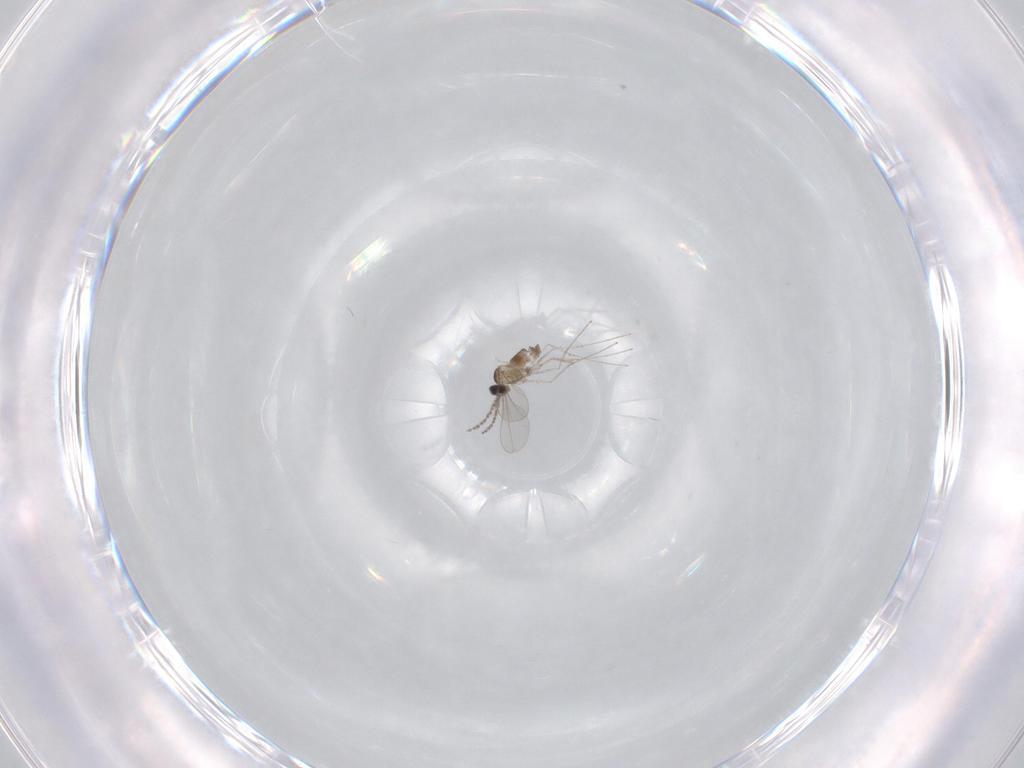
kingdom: Animalia
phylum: Arthropoda
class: Insecta
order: Diptera
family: Cecidomyiidae
